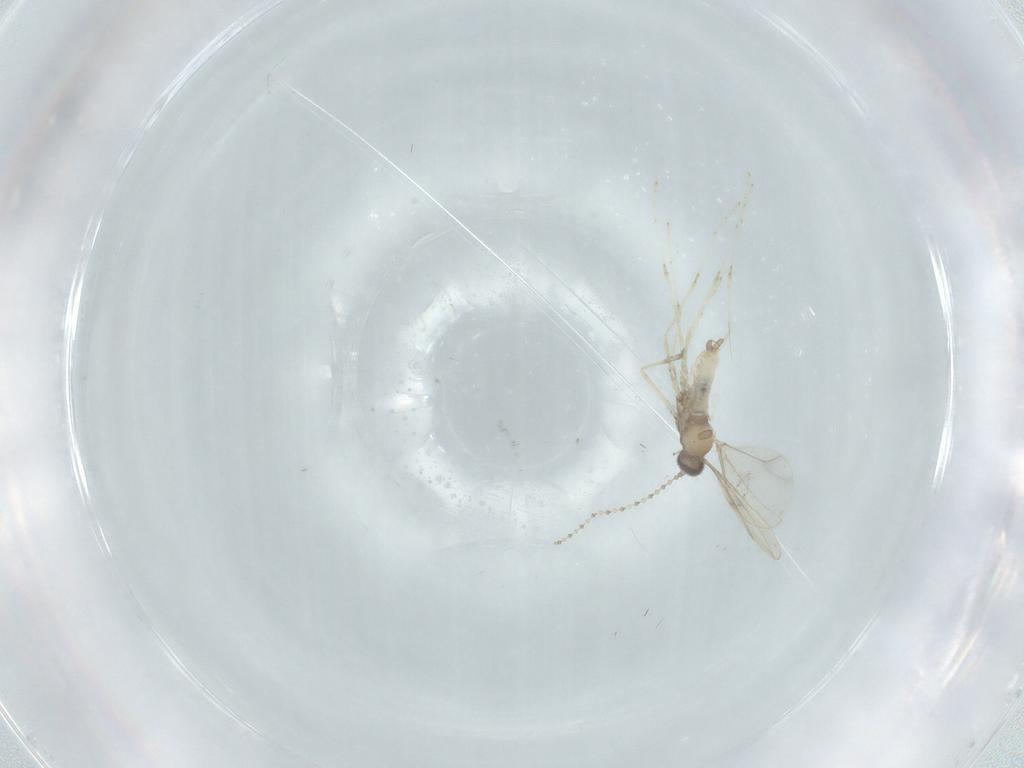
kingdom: Animalia
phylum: Arthropoda
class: Insecta
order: Diptera
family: Cecidomyiidae
